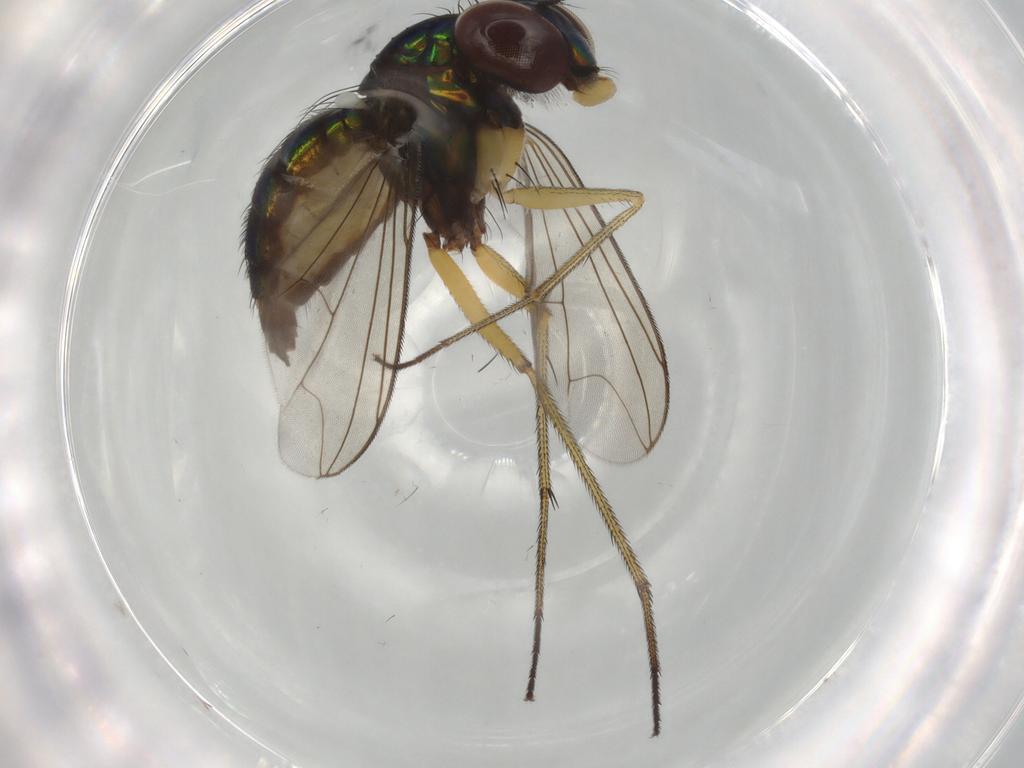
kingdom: Animalia
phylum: Arthropoda
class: Insecta
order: Diptera
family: Dolichopodidae
